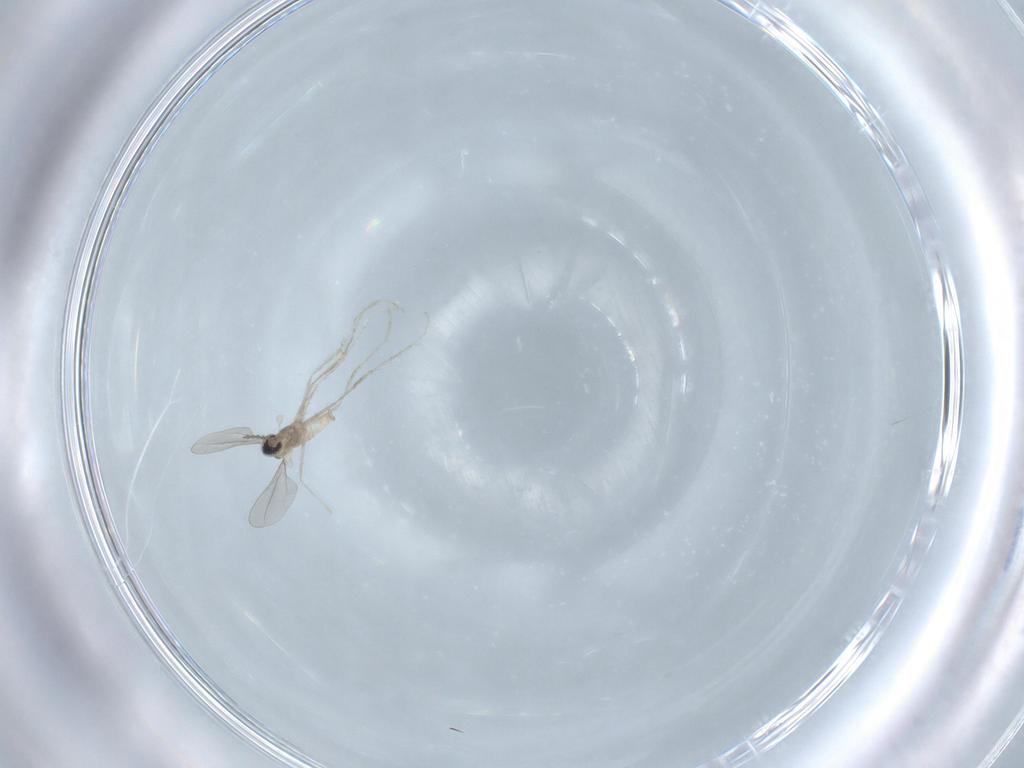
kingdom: Animalia
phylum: Arthropoda
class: Insecta
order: Diptera
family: Cecidomyiidae
